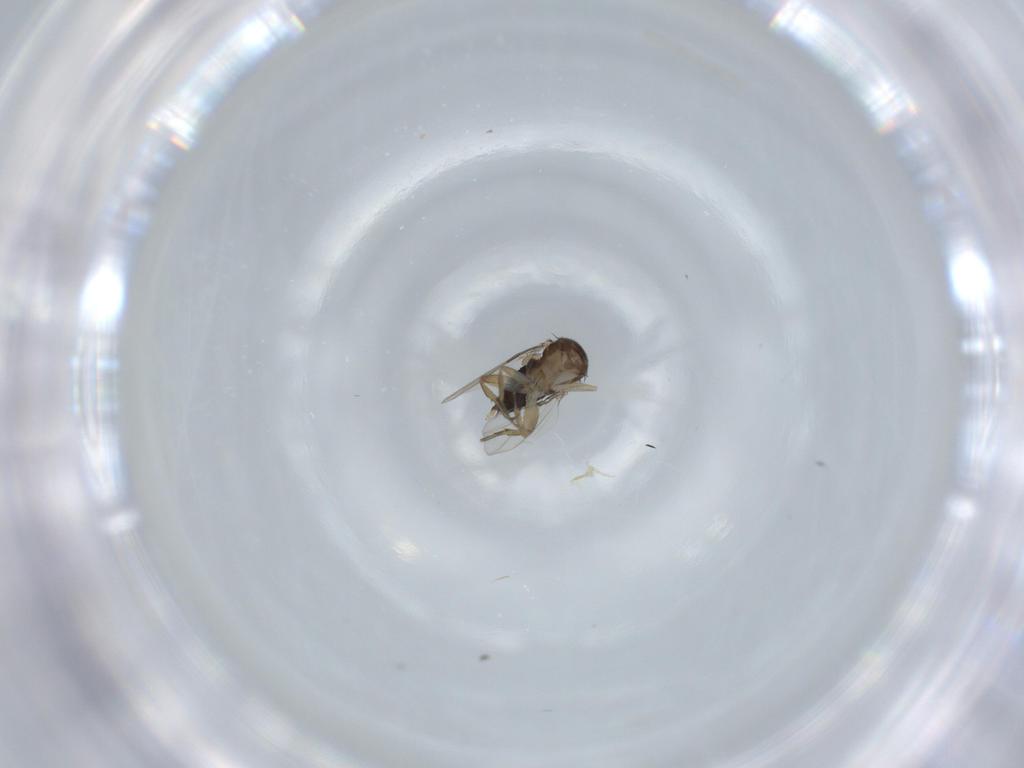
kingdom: Animalia
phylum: Arthropoda
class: Insecta
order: Diptera
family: Phoridae
